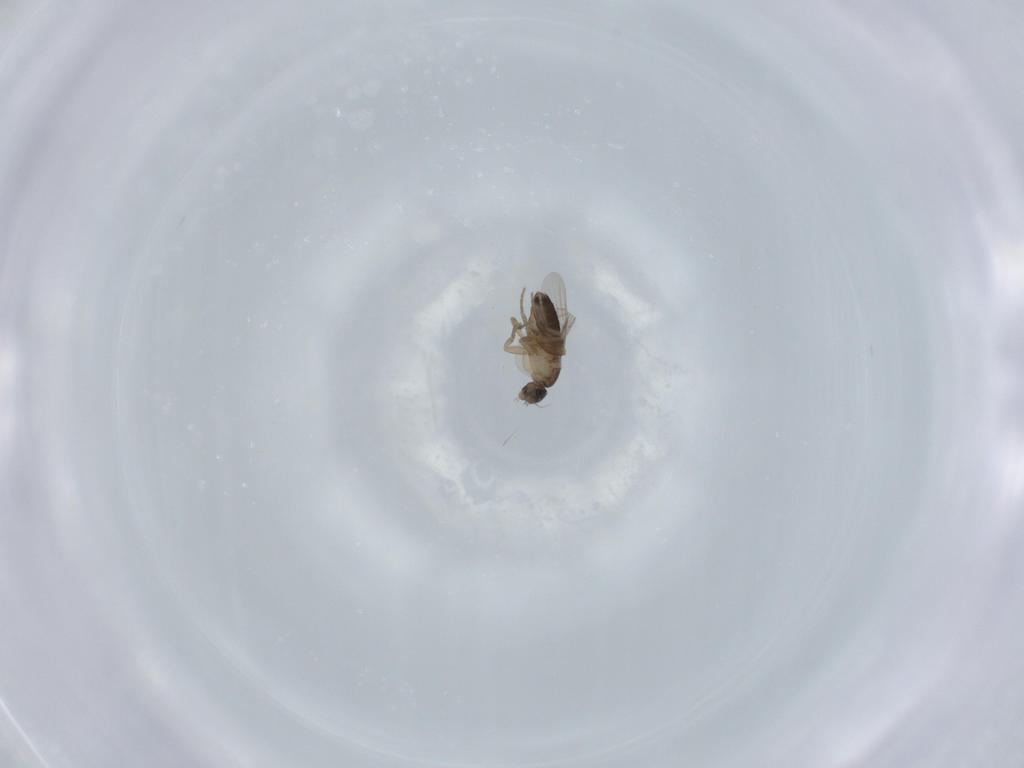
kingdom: Animalia
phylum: Arthropoda
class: Insecta
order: Diptera
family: Phoridae
